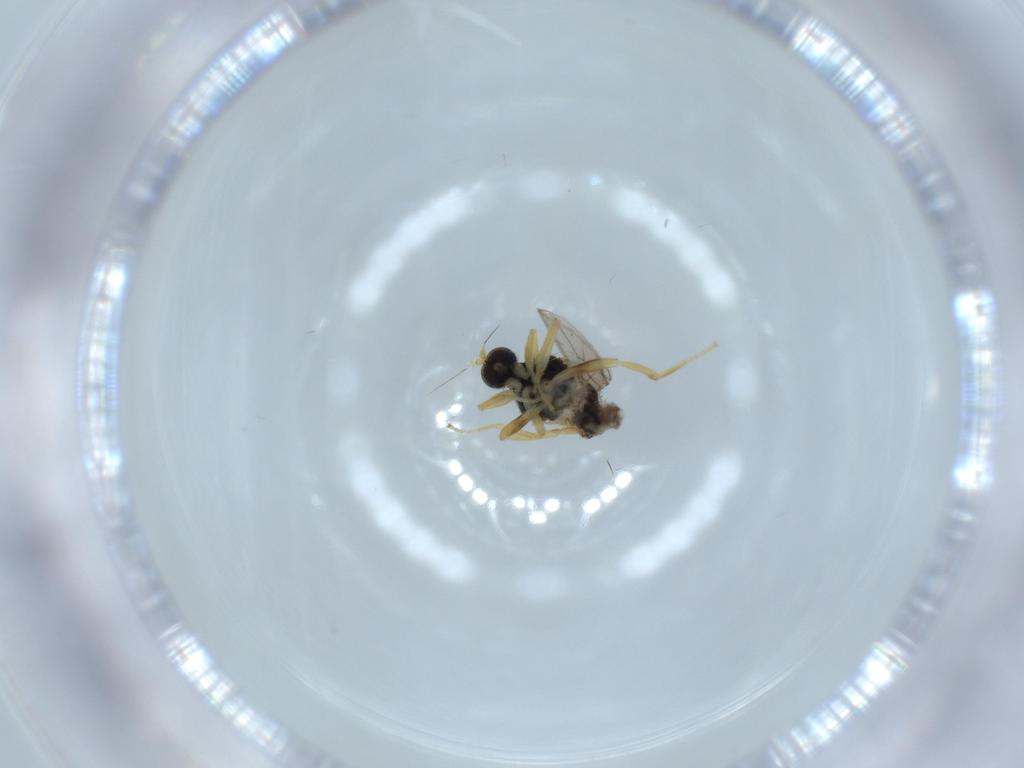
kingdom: Animalia
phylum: Arthropoda
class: Insecta
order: Diptera
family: Hybotidae
